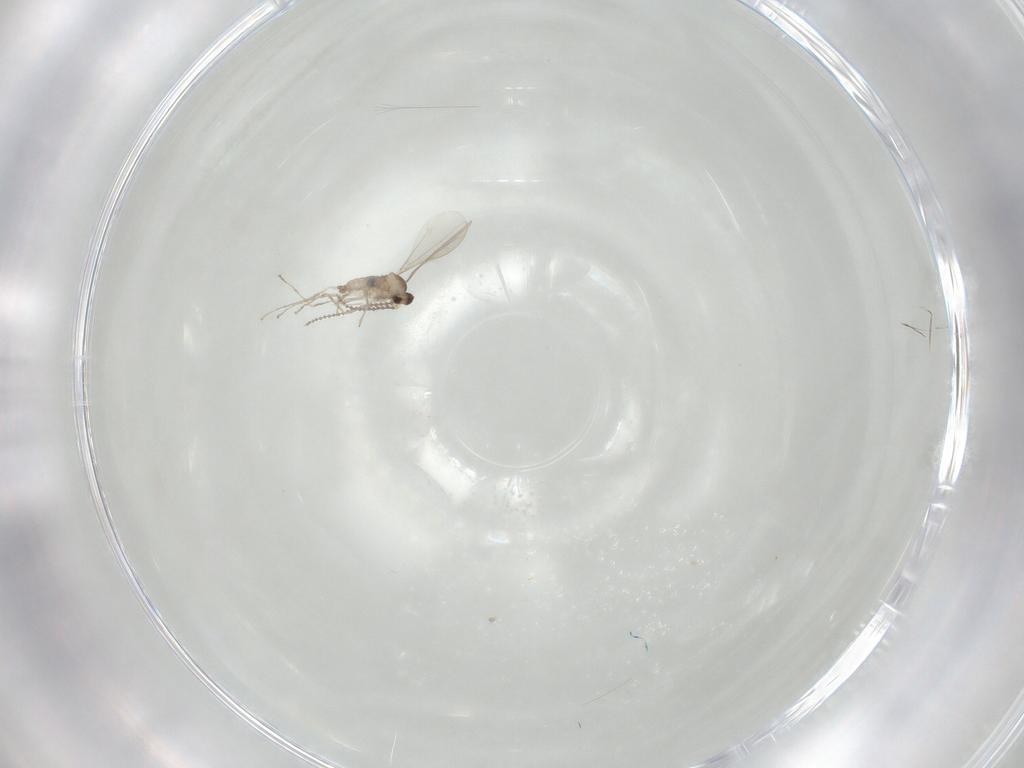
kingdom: Animalia
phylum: Arthropoda
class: Insecta
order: Diptera
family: Cecidomyiidae
